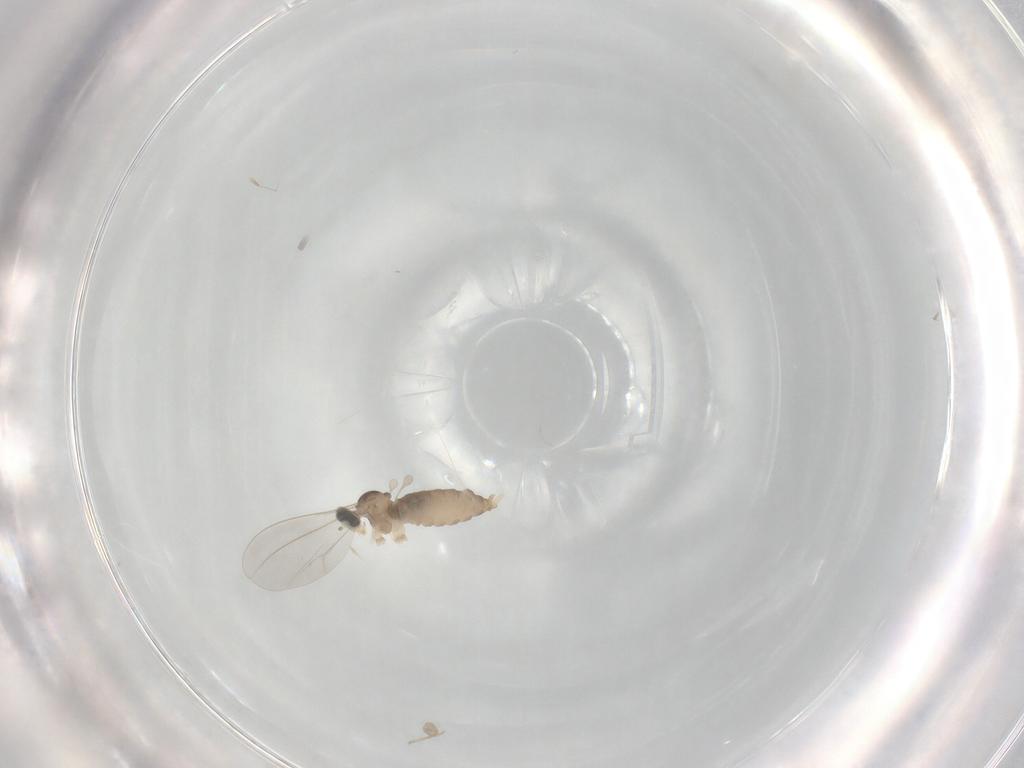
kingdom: Animalia
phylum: Arthropoda
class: Insecta
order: Diptera
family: Cecidomyiidae
